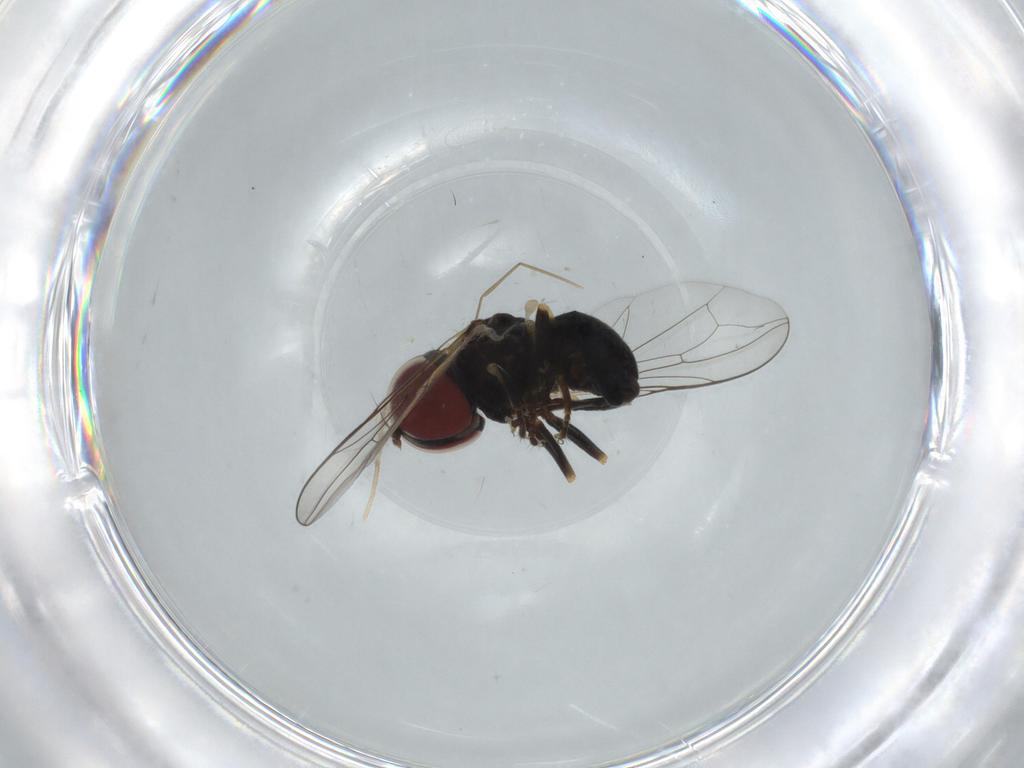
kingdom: Animalia
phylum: Arthropoda
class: Insecta
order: Diptera
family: Pipunculidae
